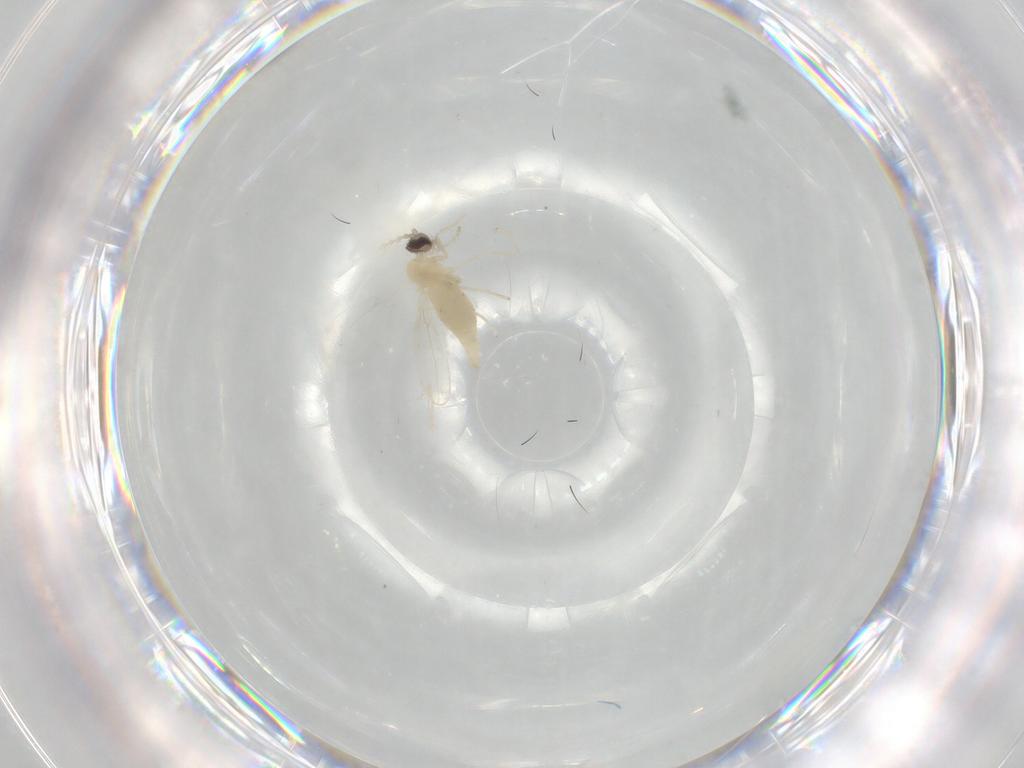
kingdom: Animalia
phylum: Arthropoda
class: Insecta
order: Diptera
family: Cecidomyiidae
